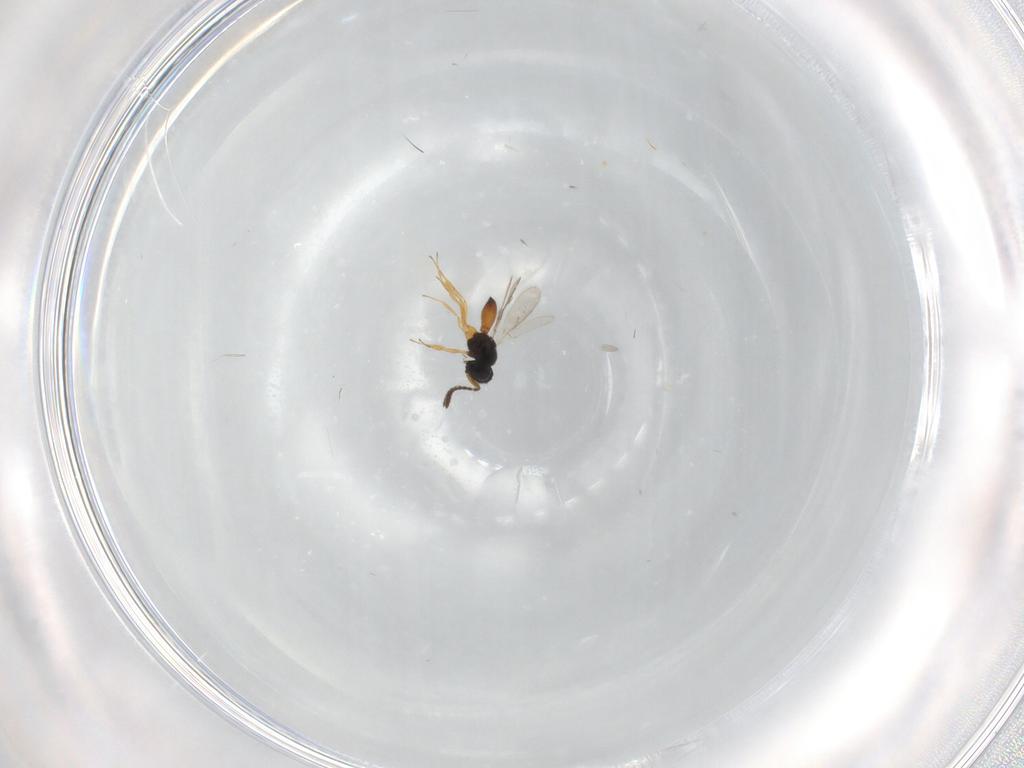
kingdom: Animalia
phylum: Arthropoda
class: Insecta
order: Hymenoptera
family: Scelionidae
